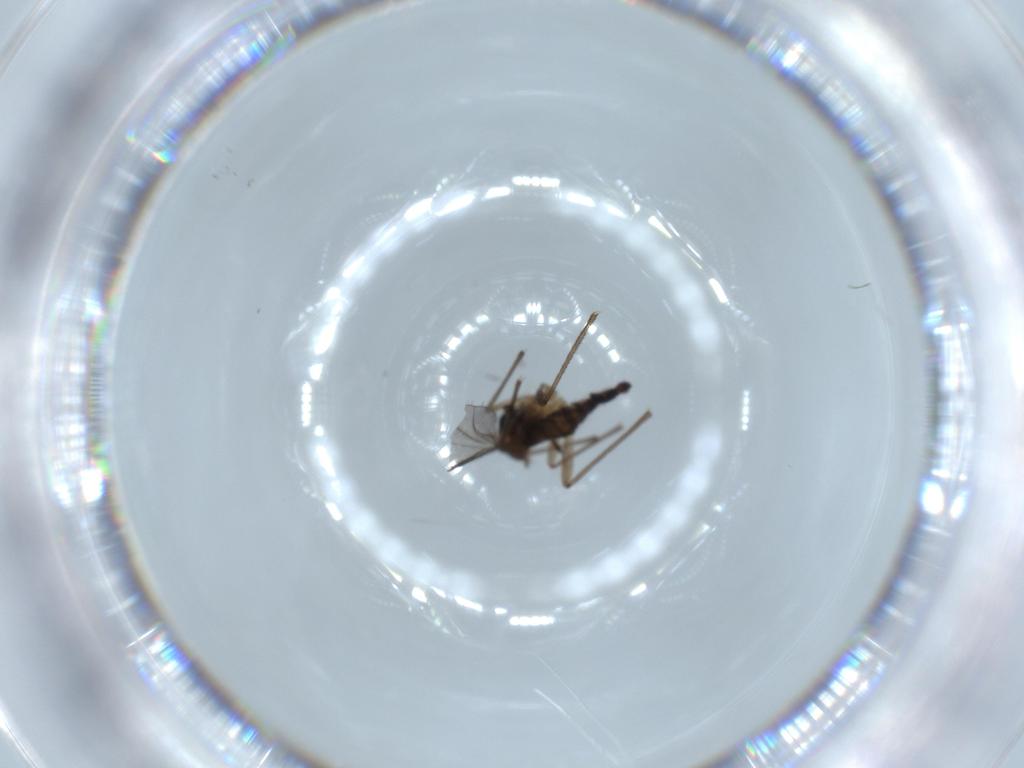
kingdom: Animalia
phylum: Arthropoda
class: Insecta
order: Diptera
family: Sciaridae
